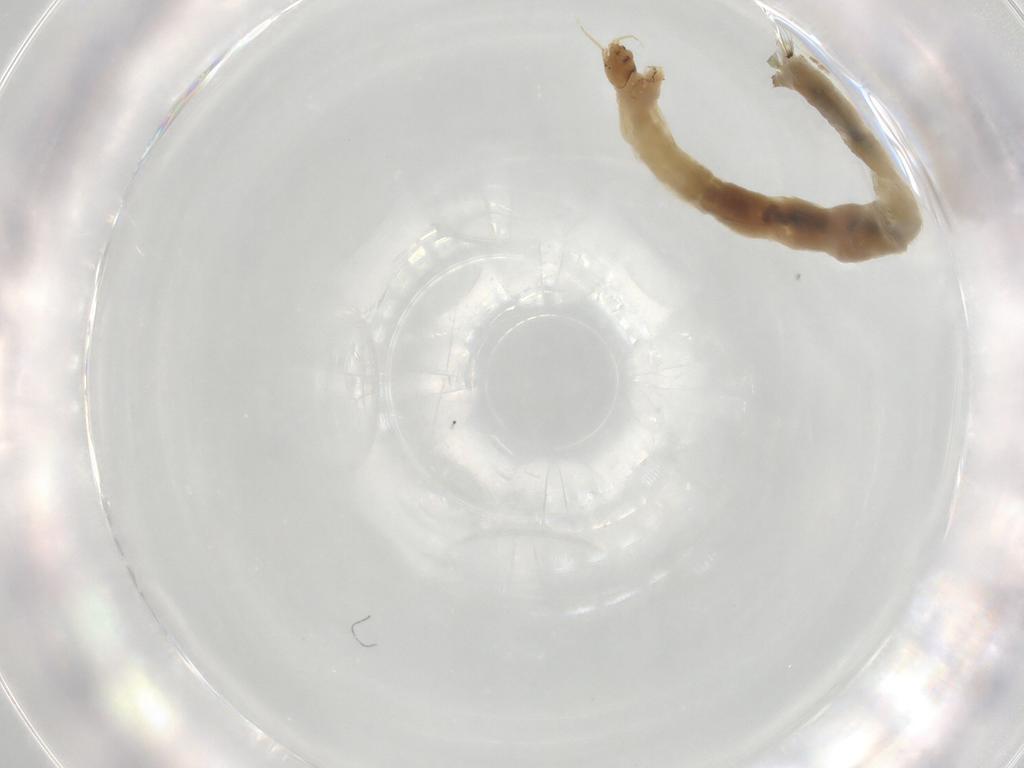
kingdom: Animalia
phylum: Arthropoda
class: Insecta
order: Diptera
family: Chironomidae
